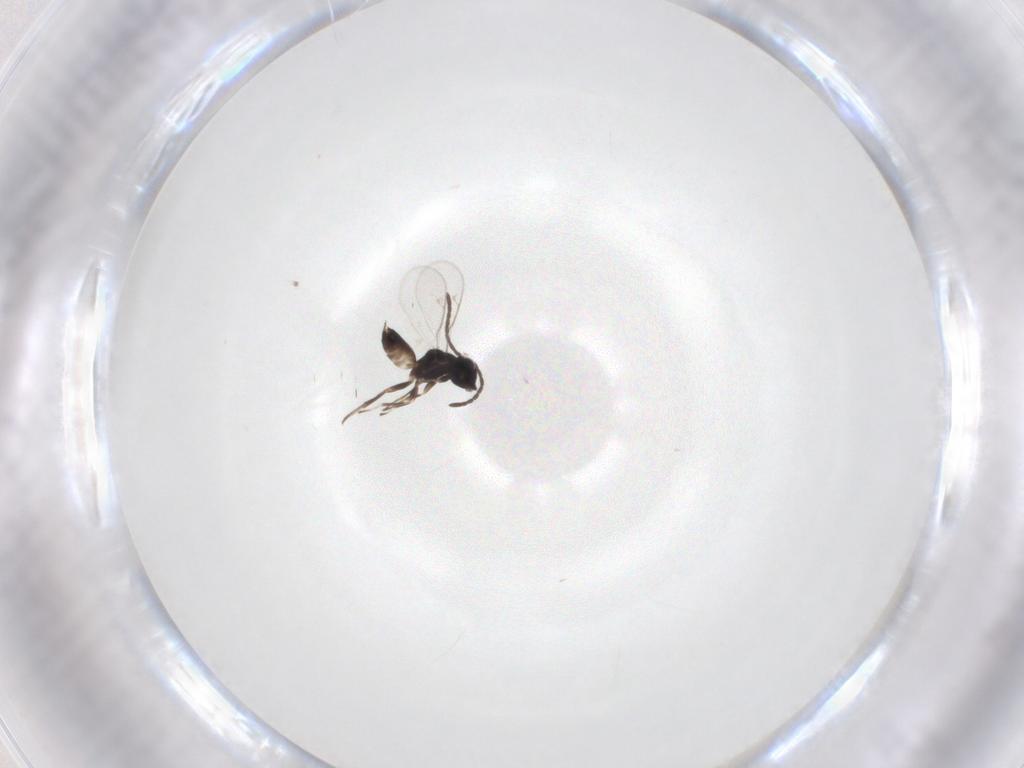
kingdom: Animalia
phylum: Arthropoda
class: Insecta
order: Hymenoptera
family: Eupelmidae
